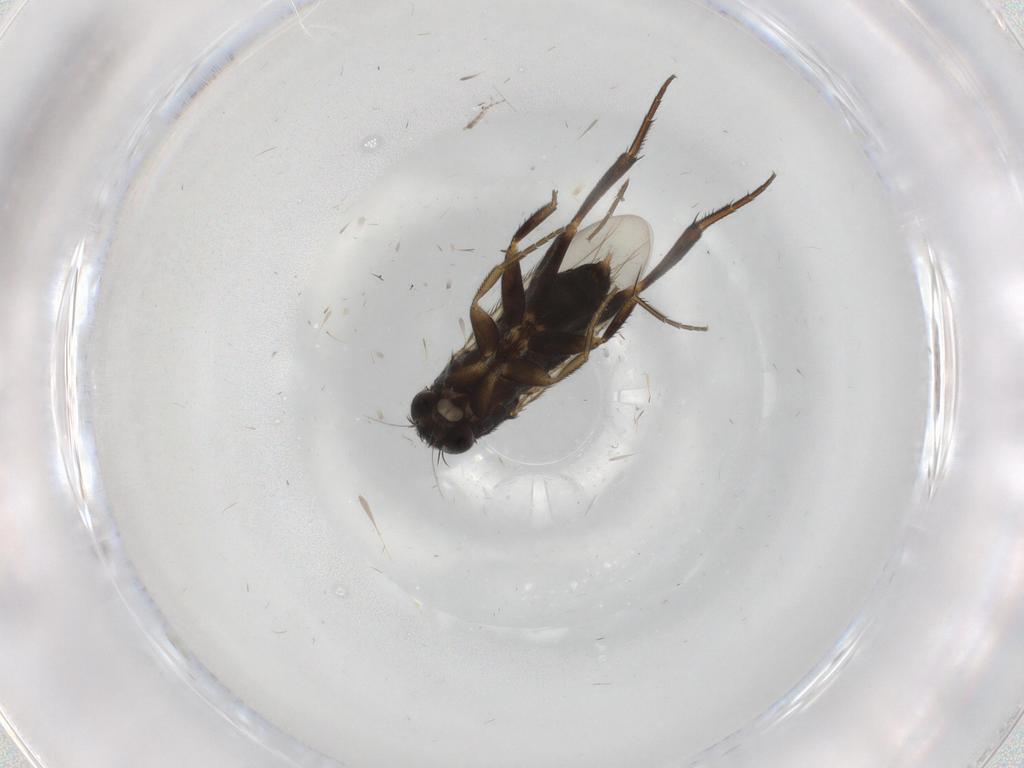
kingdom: Animalia
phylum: Arthropoda
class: Insecta
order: Diptera
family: Phoridae
